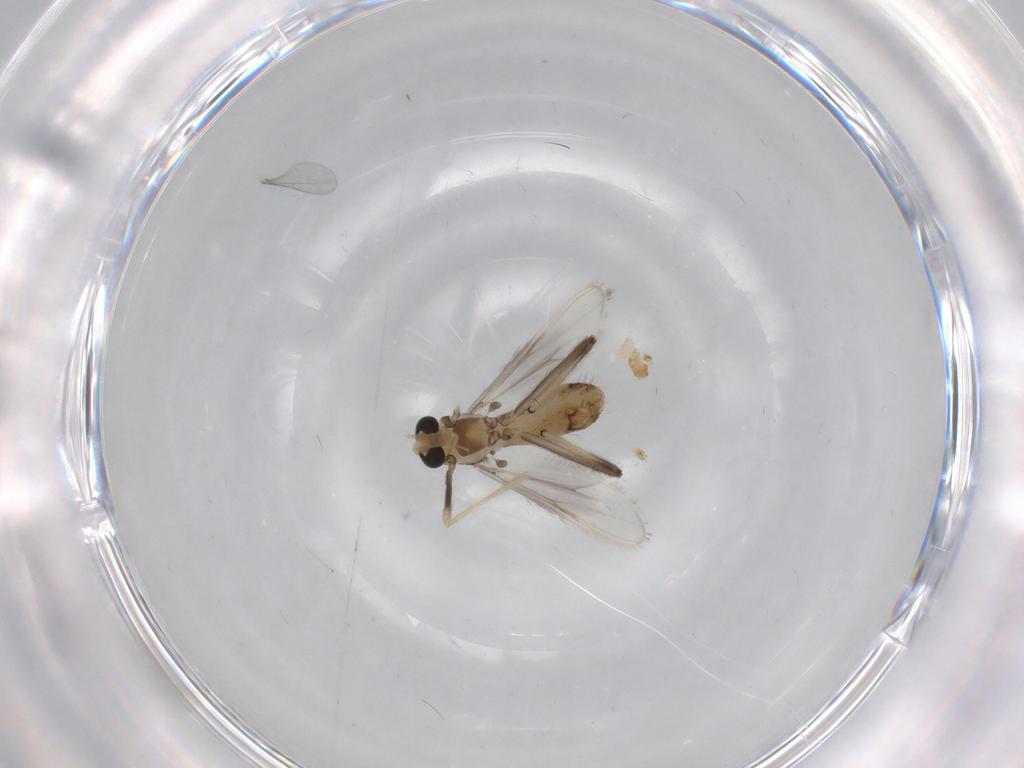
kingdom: Animalia
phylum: Arthropoda
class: Insecta
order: Diptera
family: Chironomidae
